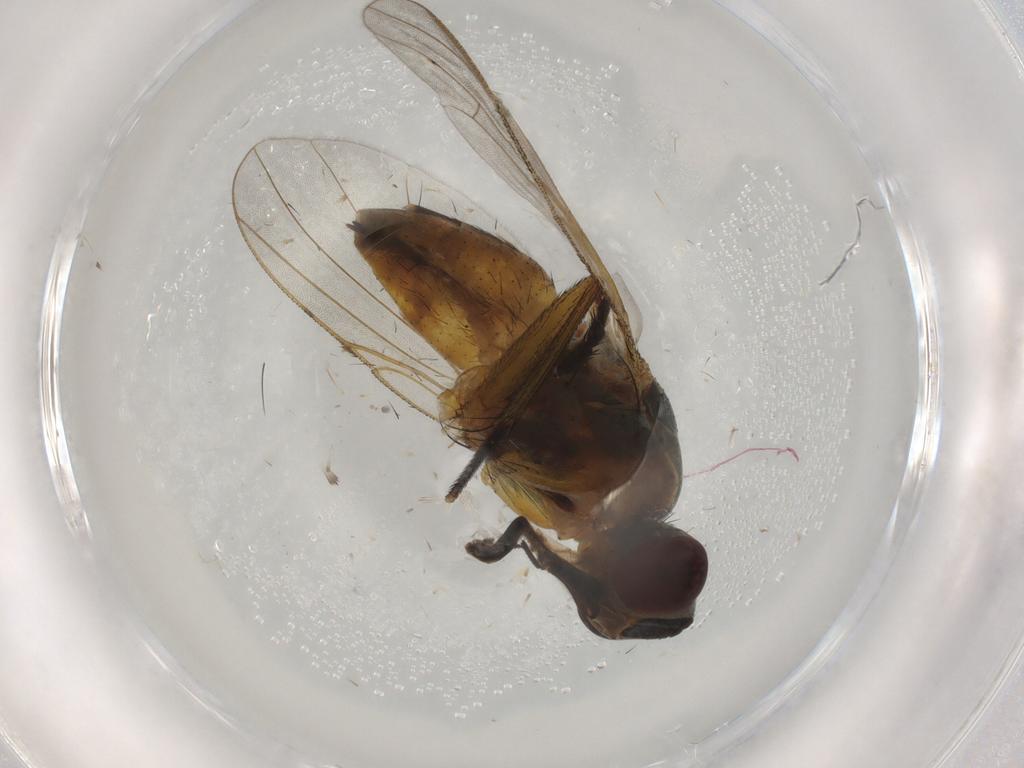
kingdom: Animalia
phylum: Arthropoda
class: Insecta
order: Diptera
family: Muscidae
